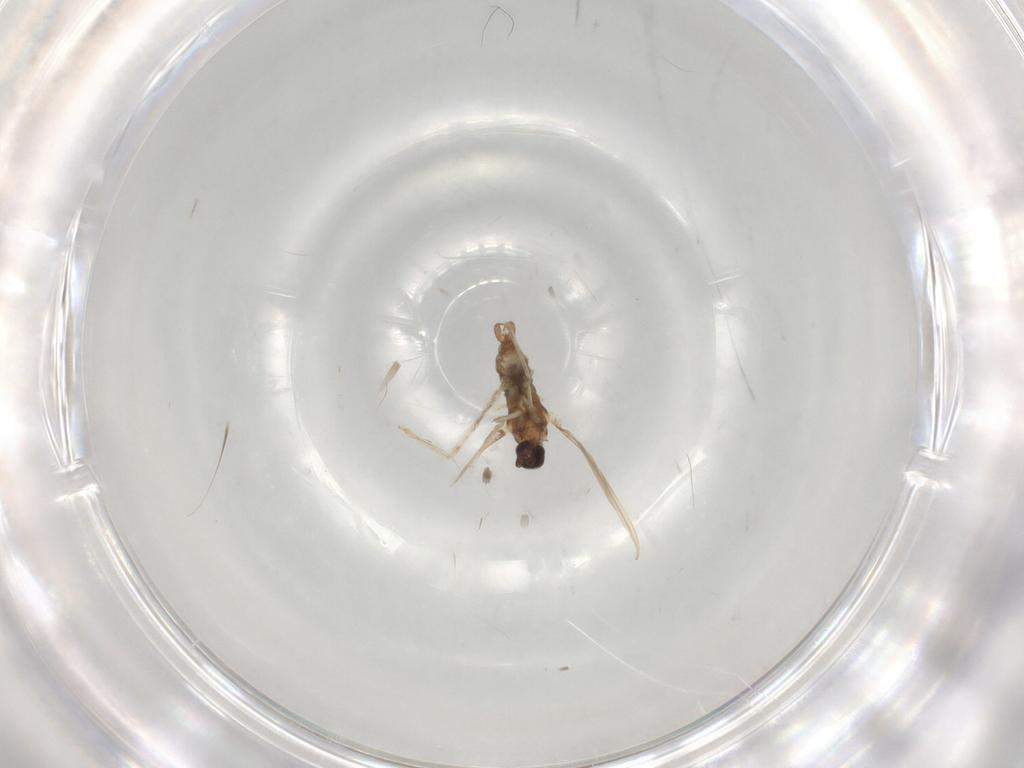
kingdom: Animalia
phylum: Arthropoda
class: Insecta
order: Diptera
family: Cecidomyiidae
